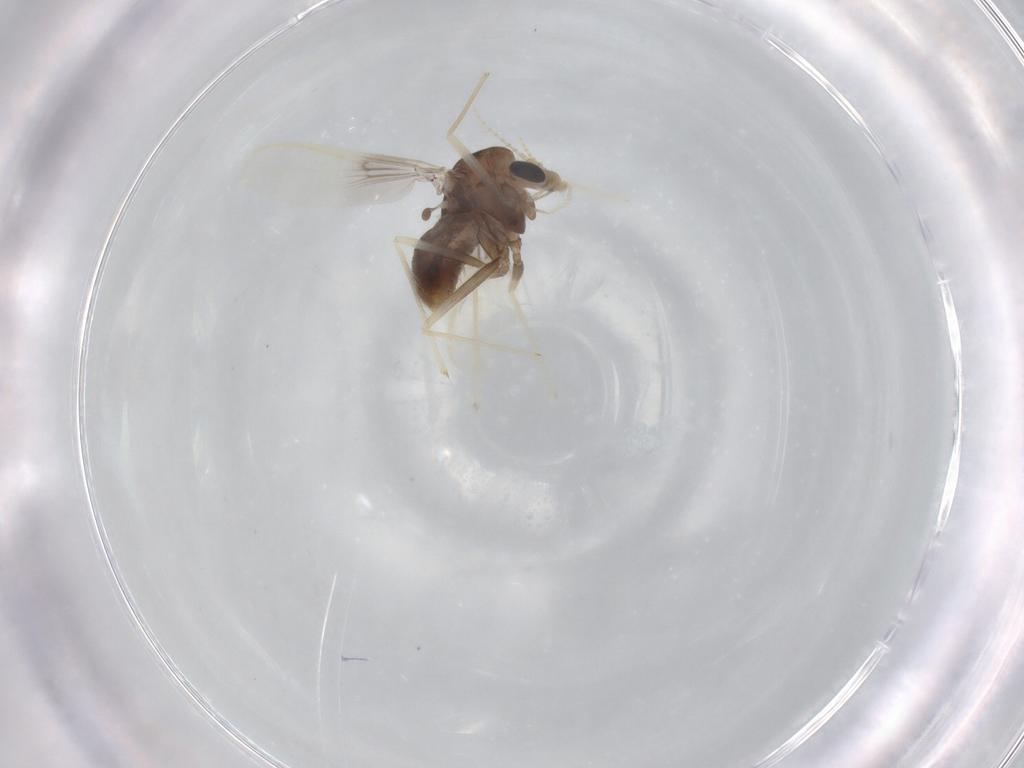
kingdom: Animalia
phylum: Arthropoda
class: Insecta
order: Diptera
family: Chironomidae
